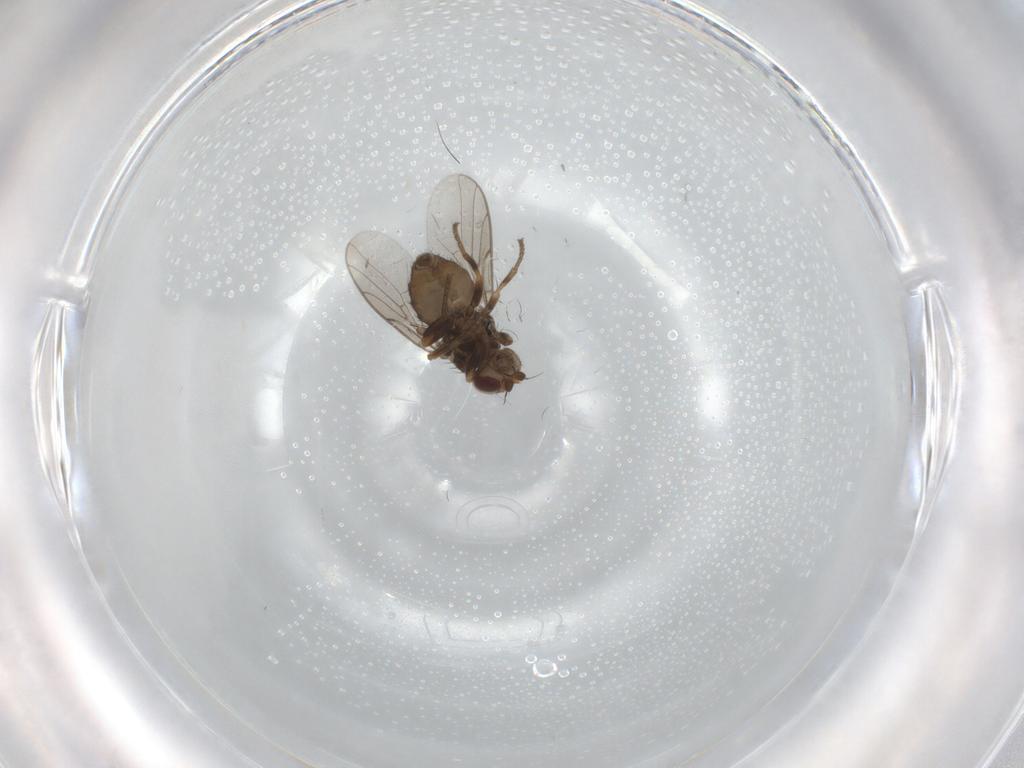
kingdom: Animalia
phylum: Arthropoda
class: Insecta
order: Diptera
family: Chloropidae
